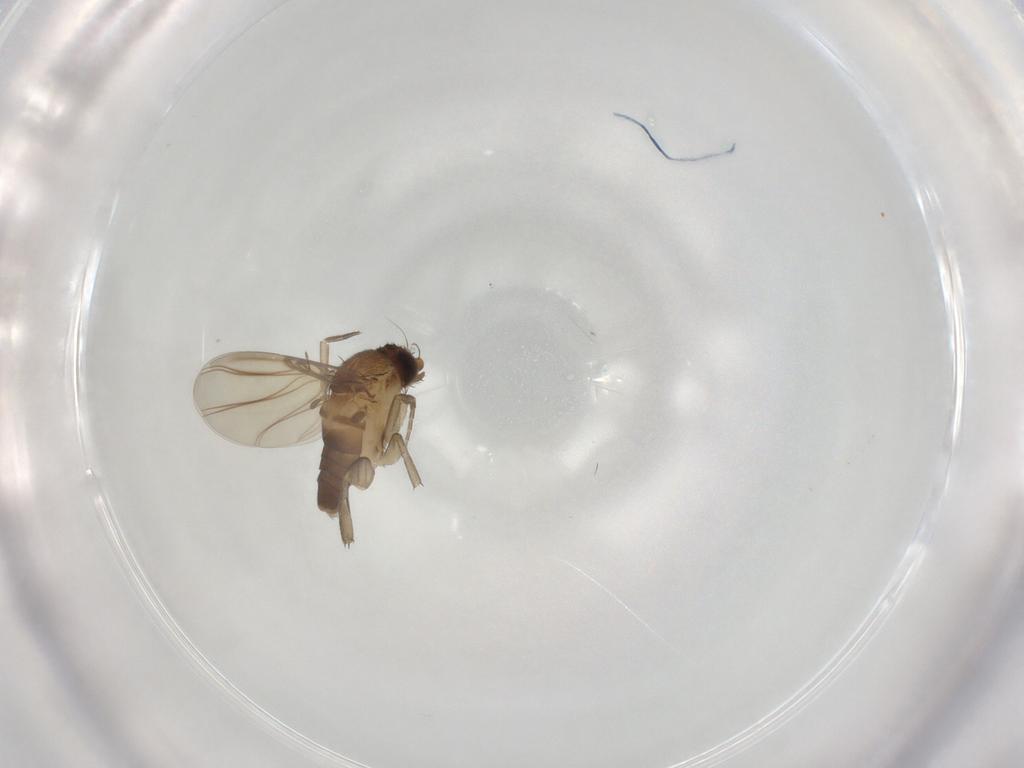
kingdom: Animalia
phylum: Arthropoda
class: Insecta
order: Diptera
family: Phoridae
